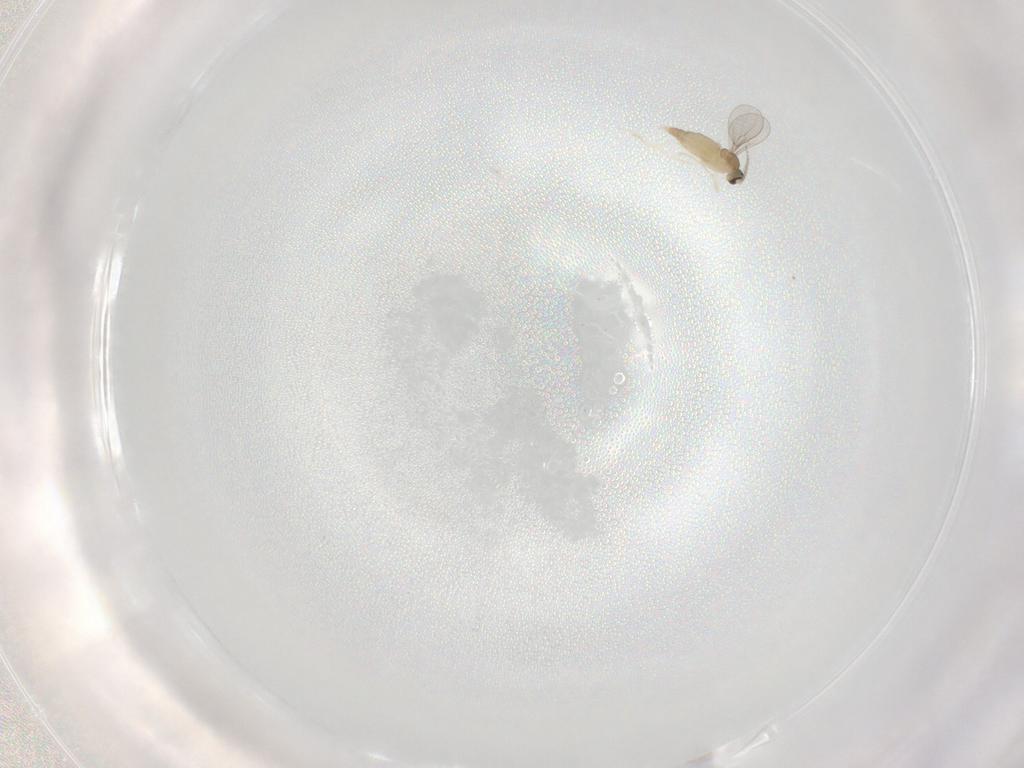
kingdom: Animalia
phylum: Arthropoda
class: Insecta
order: Diptera
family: Cecidomyiidae
